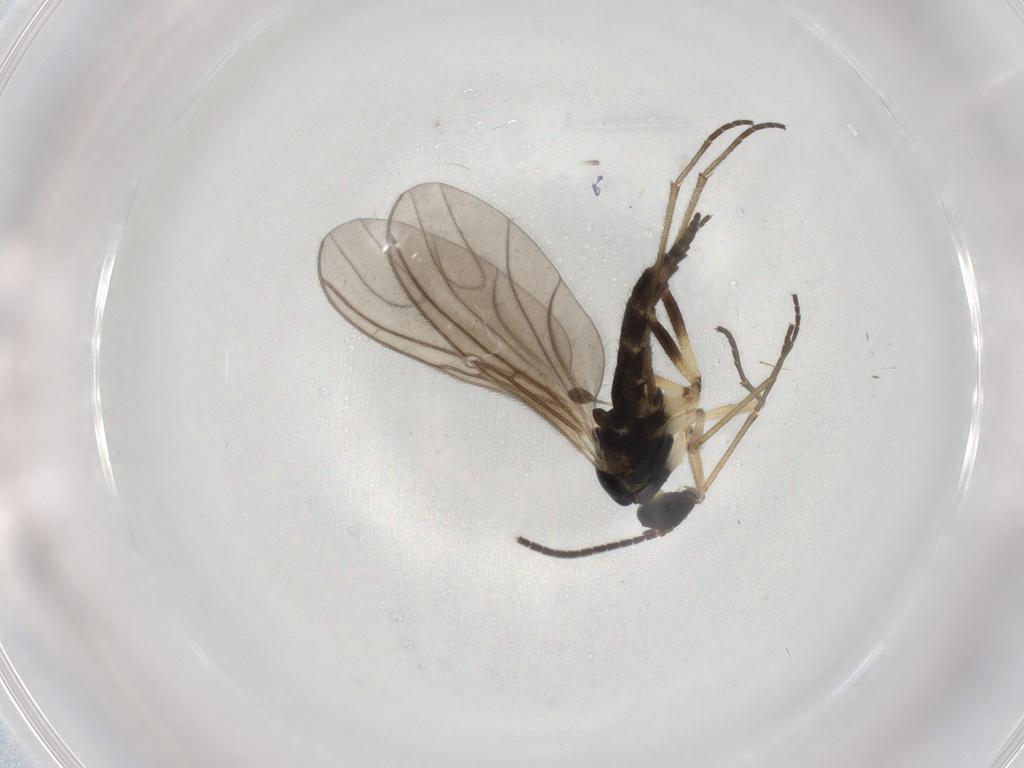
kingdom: Animalia
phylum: Arthropoda
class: Insecta
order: Diptera
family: Sciaridae
